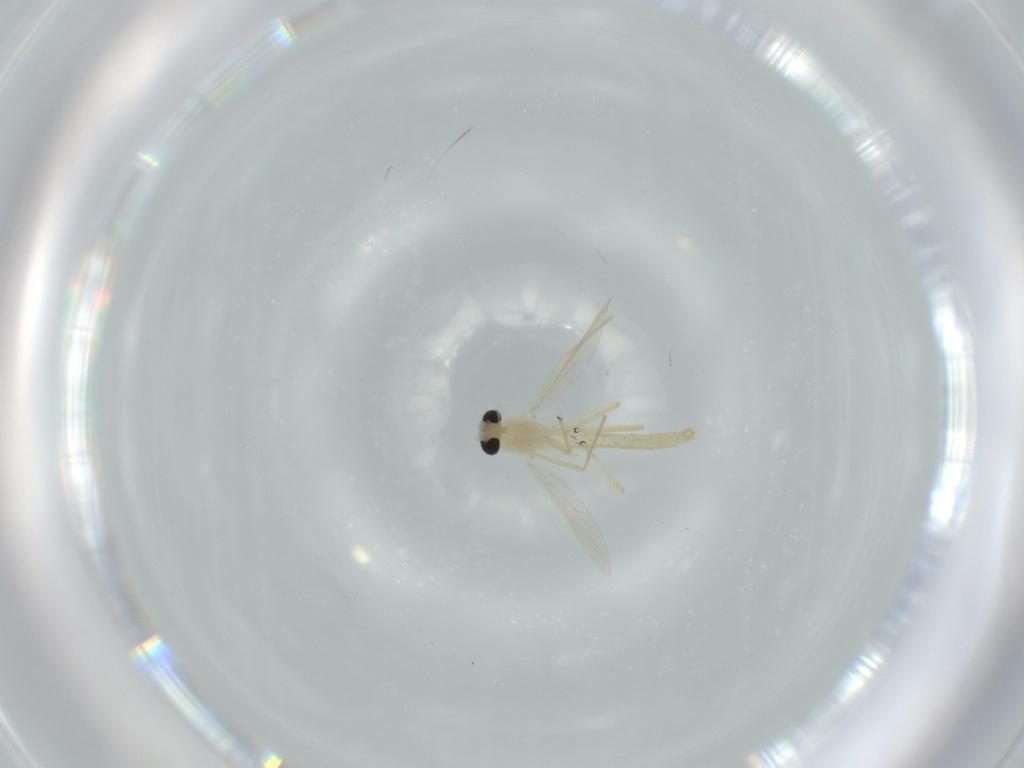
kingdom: Animalia
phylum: Arthropoda
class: Insecta
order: Diptera
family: Chironomidae
